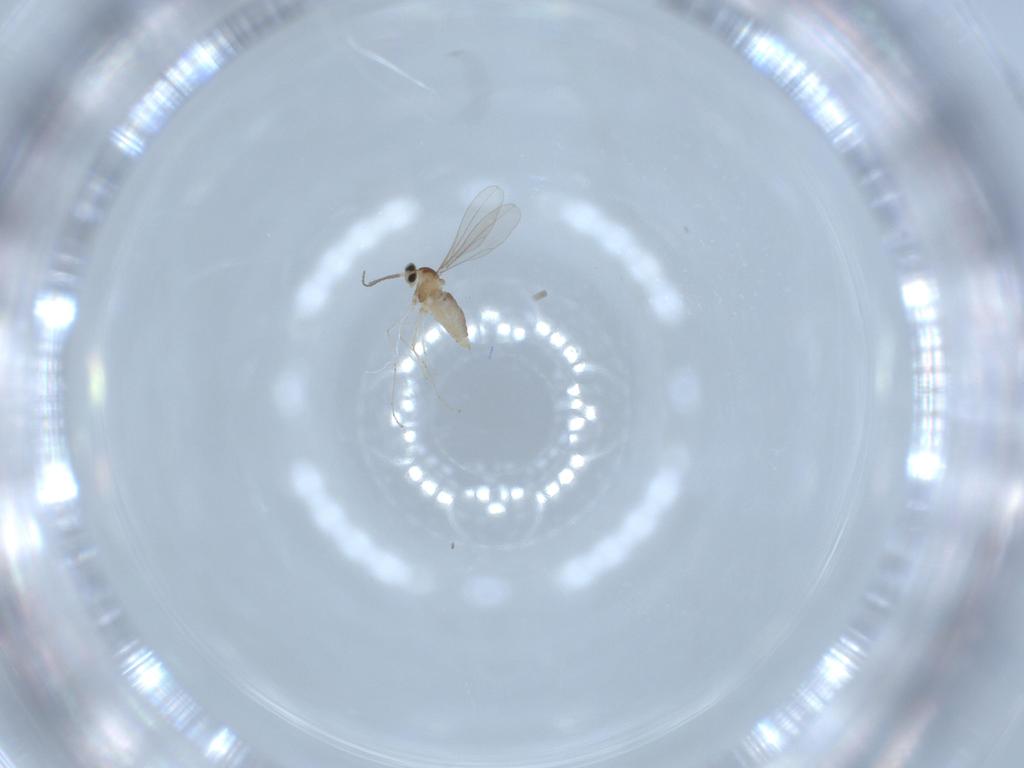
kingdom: Animalia
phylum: Arthropoda
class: Insecta
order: Diptera
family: Cecidomyiidae
